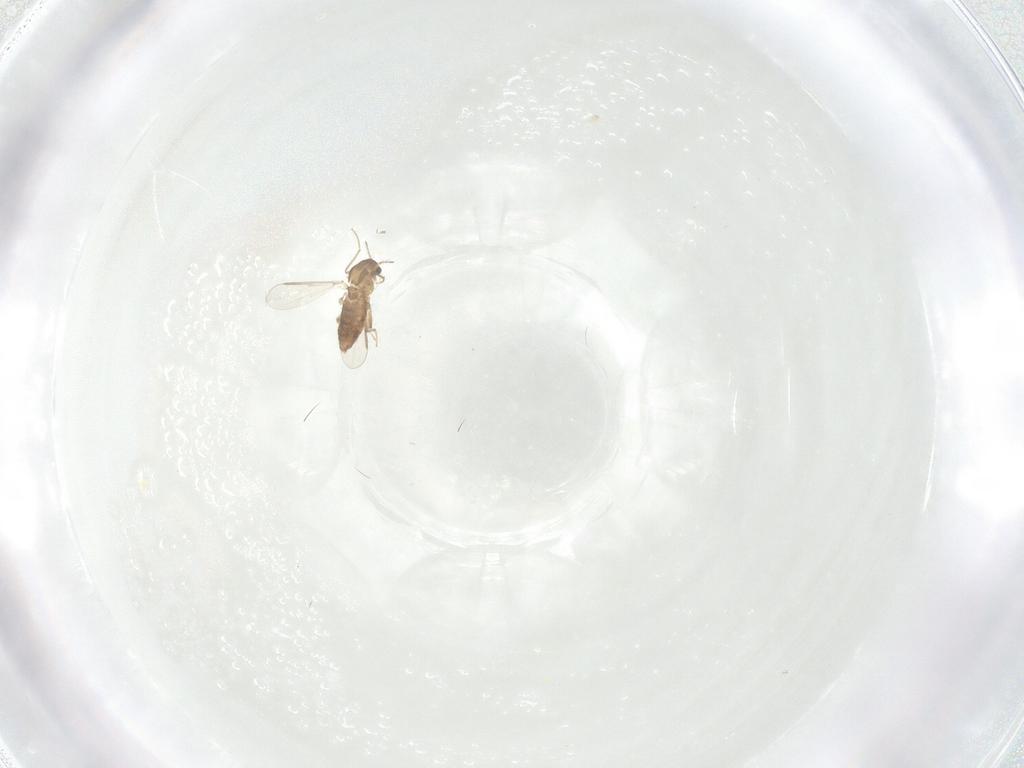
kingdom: Animalia
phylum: Arthropoda
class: Insecta
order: Diptera
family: Chironomidae
